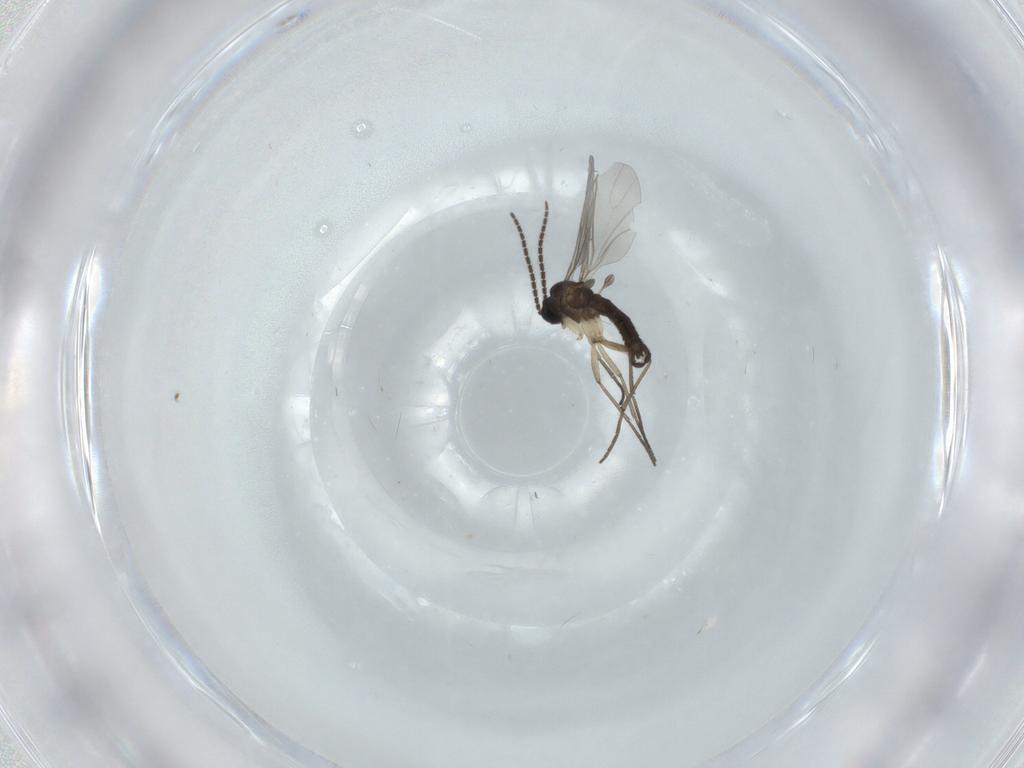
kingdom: Animalia
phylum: Arthropoda
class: Insecta
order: Diptera
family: Sciaridae
